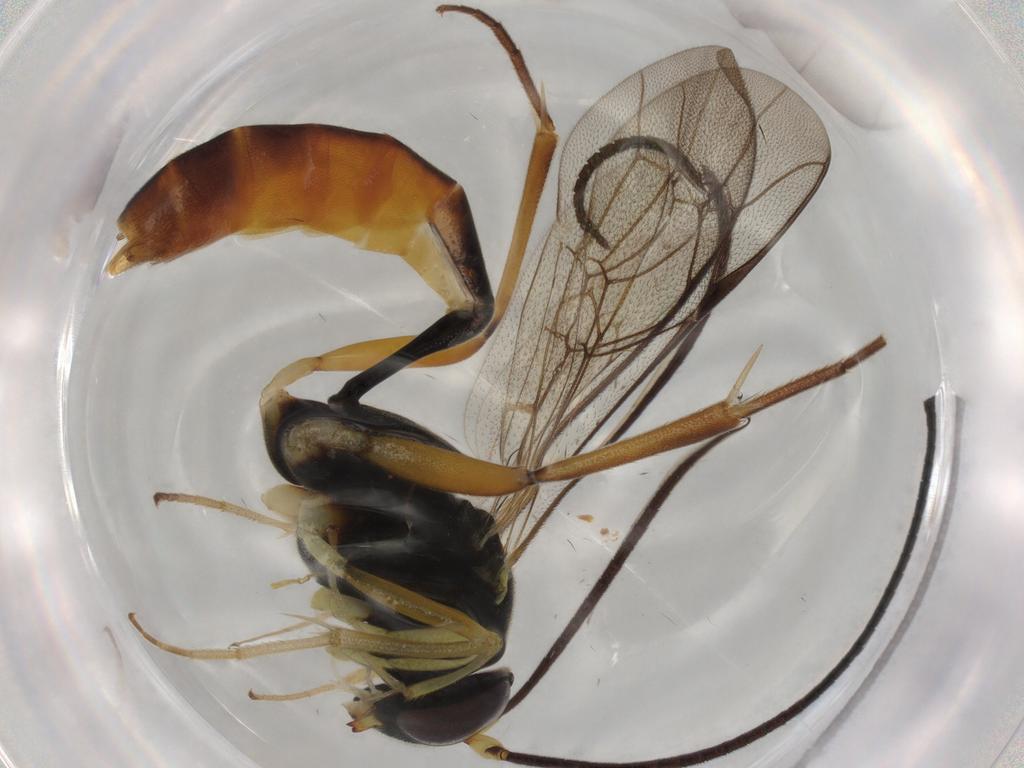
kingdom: Animalia
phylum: Arthropoda
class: Insecta
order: Hymenoptera
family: Ichneumonidae
